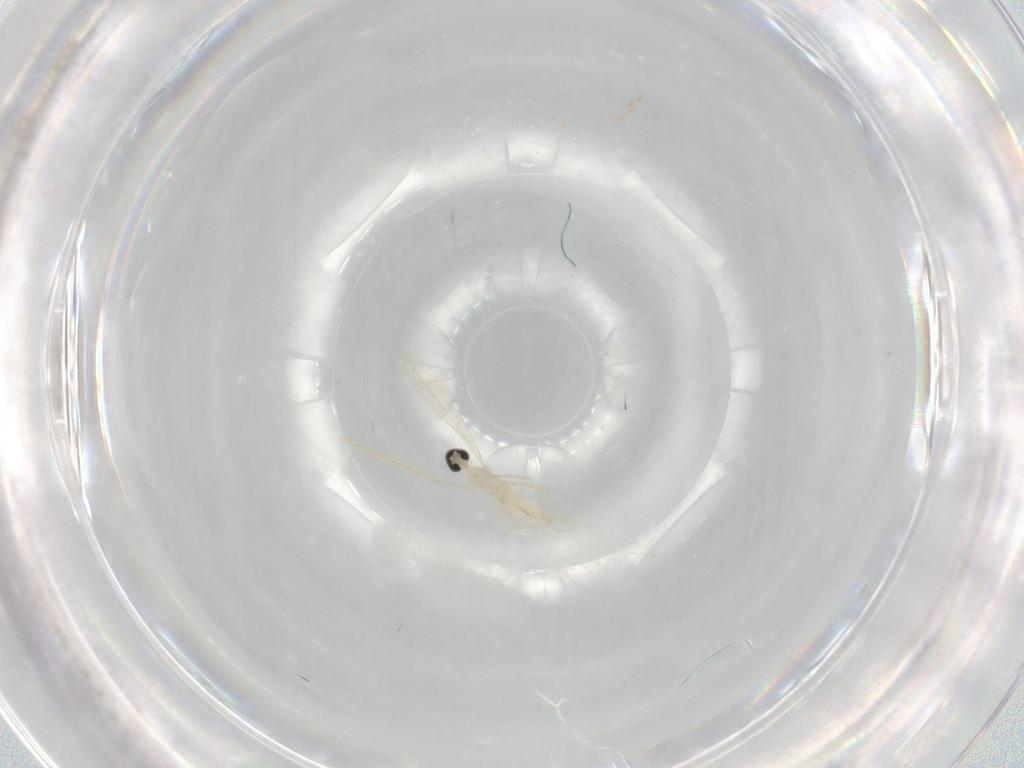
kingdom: Animalia
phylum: Arthropoda
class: Insecta
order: Diptera
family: Cecidomyiidae
